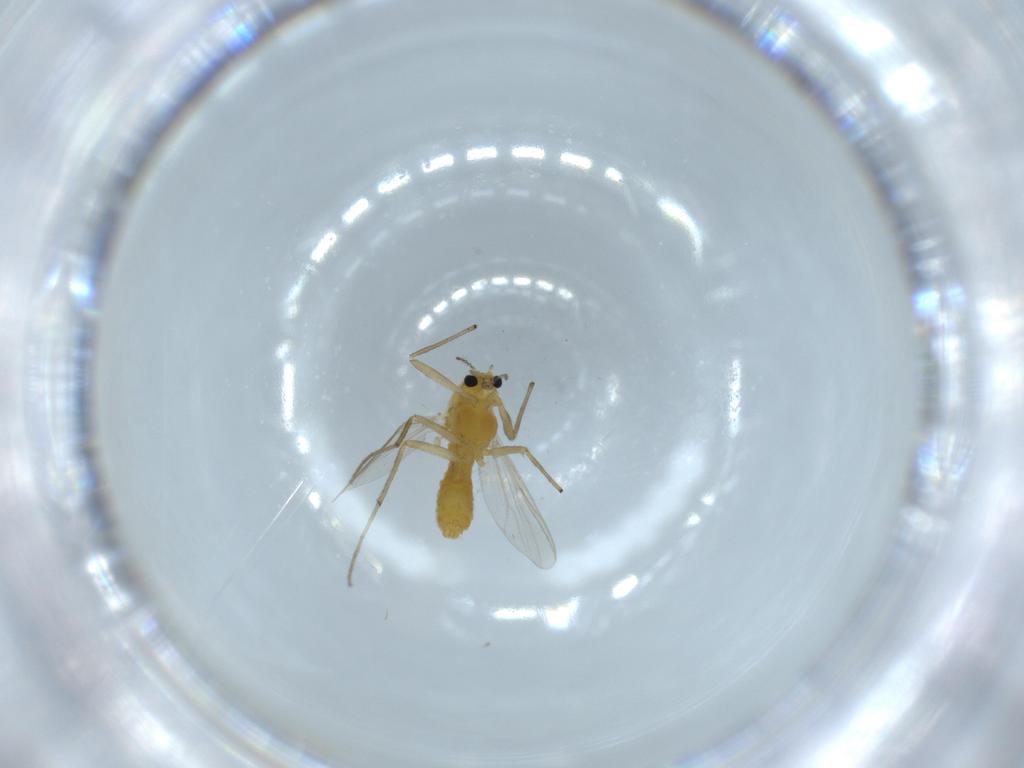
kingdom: Animalia
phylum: Arthropoda
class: Insecta
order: Diptera
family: Chironomidae
